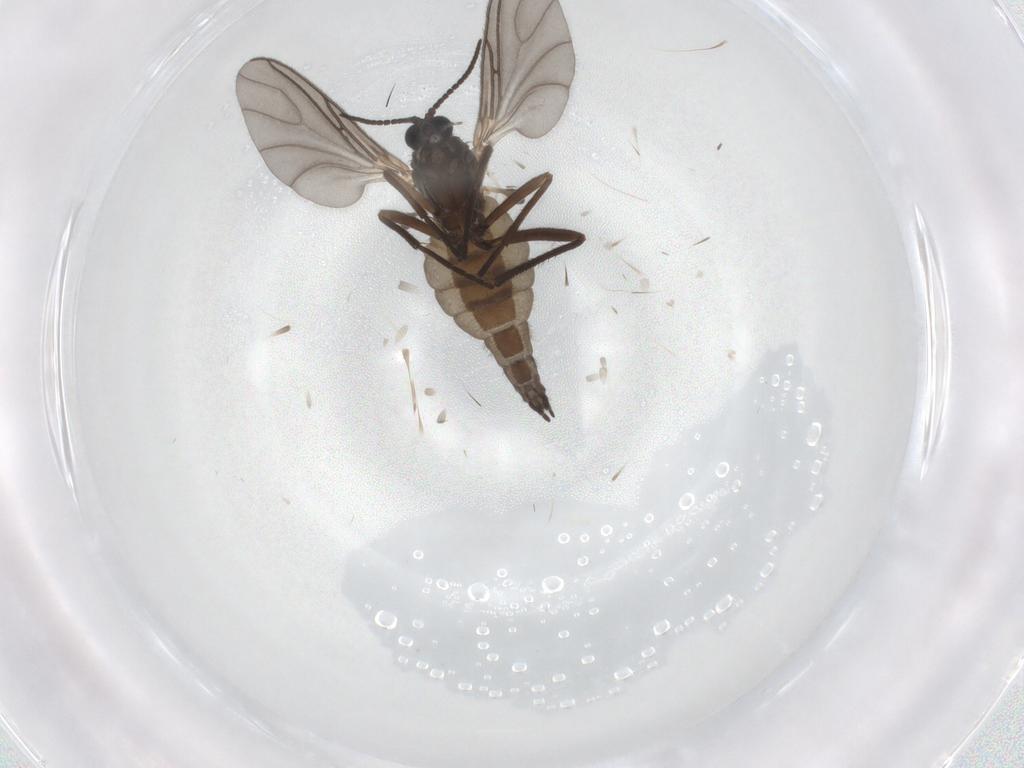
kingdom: Animalia
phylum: Arthropoda
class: Insecta
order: Diptera
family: Sciaridae
